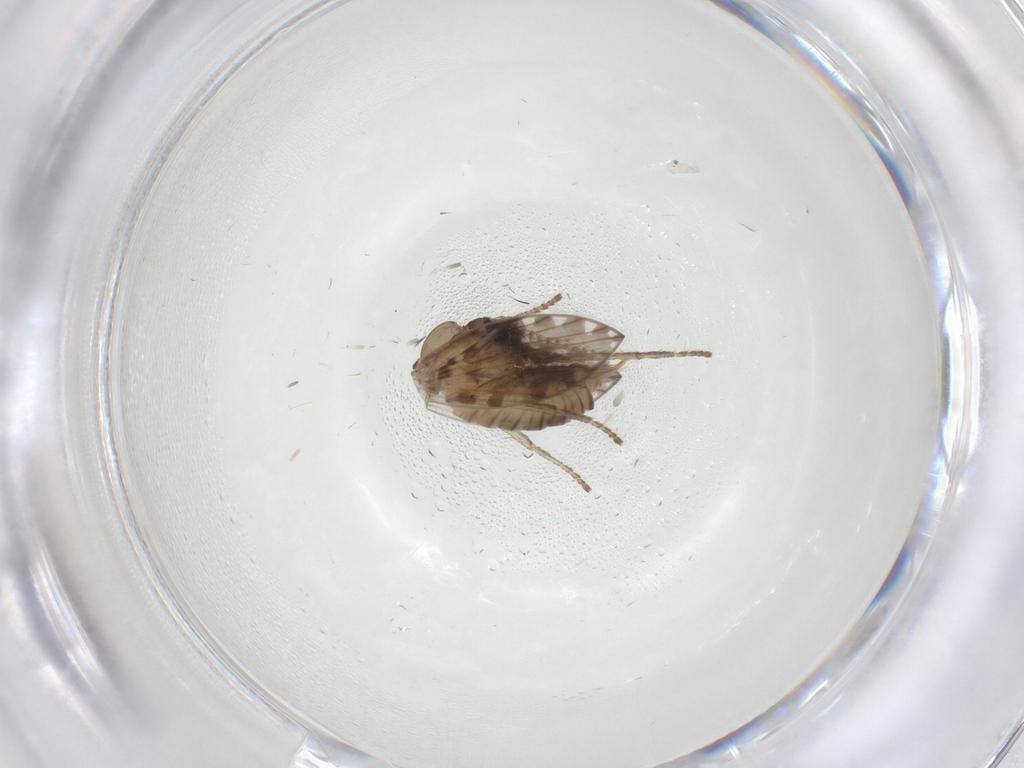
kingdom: Animalia
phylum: Arthropoda
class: Insecta
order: Diptera
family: Psychodidae
